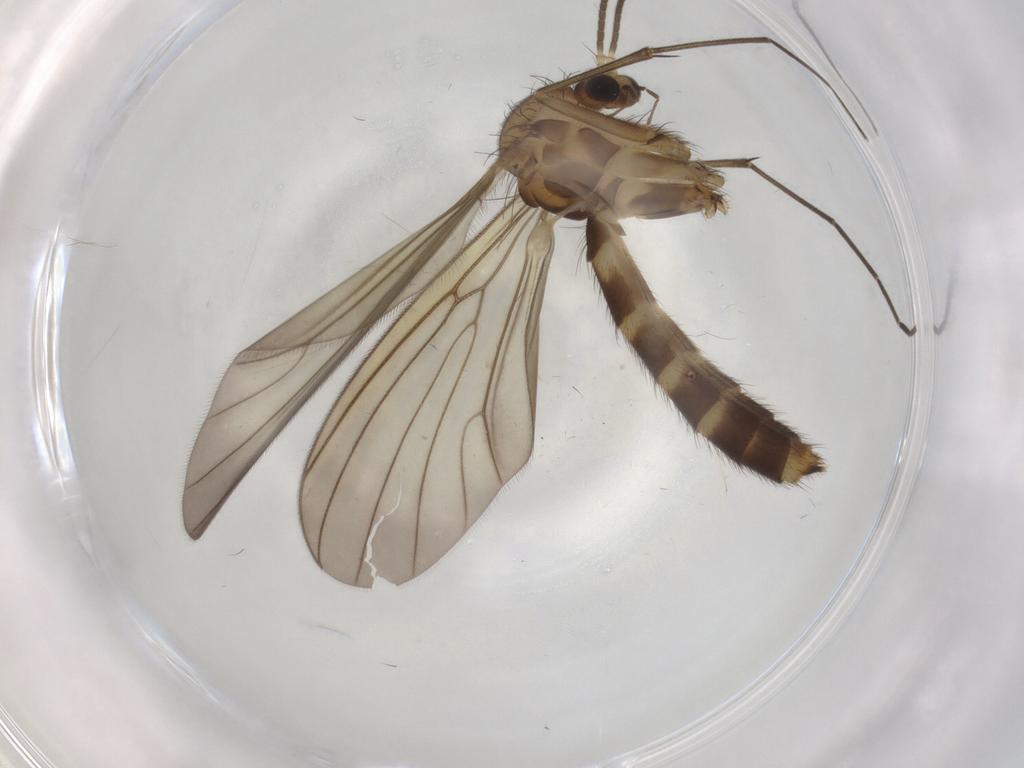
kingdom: Animalia
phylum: Arthropoda
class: Insecta
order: Diptera
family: Mycetophilidae
